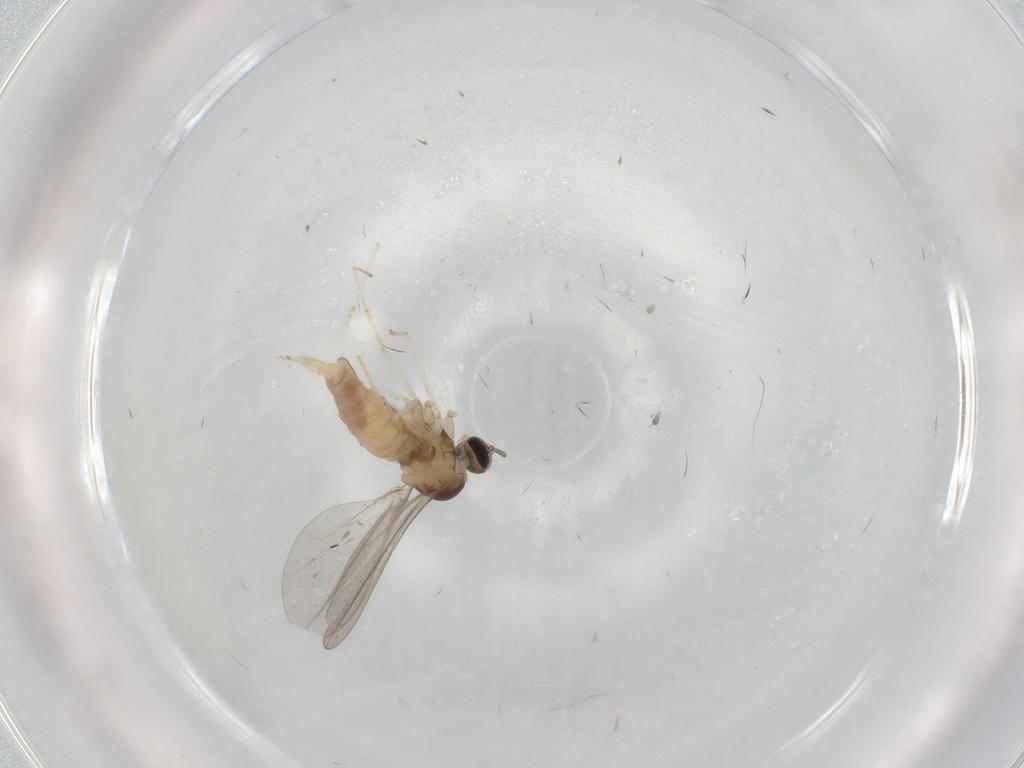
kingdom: Animalia
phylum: Arthropoda
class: Insecta
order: Diptera
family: Cecidomyiidae
